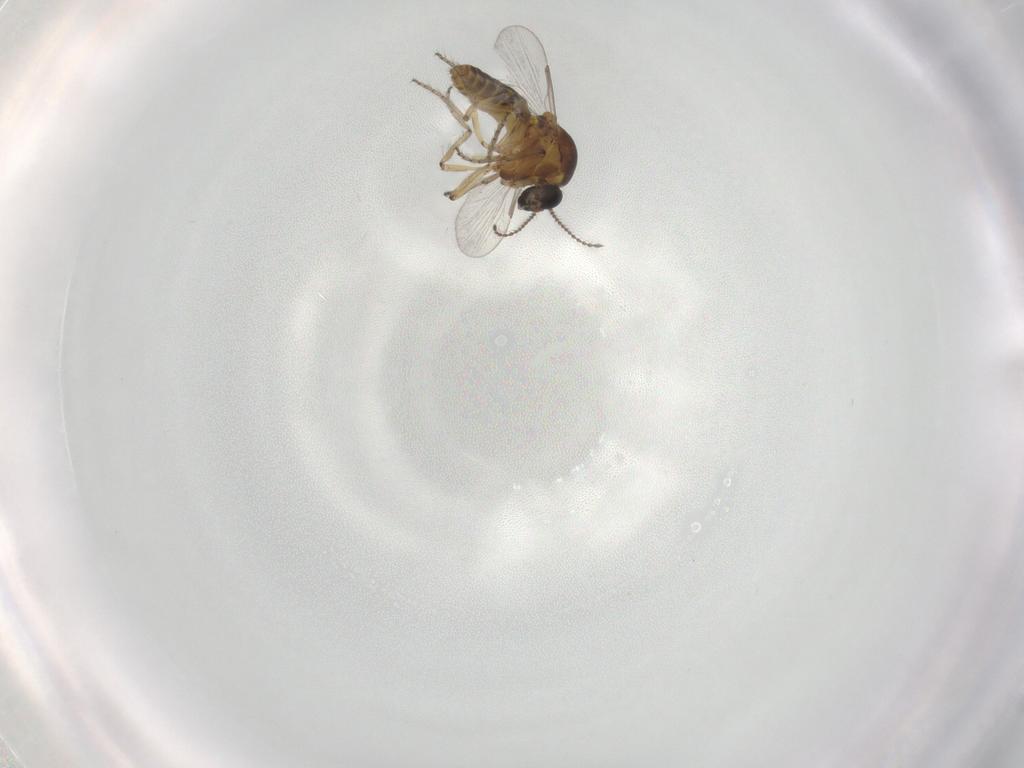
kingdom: Animalia
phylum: Arthropoda
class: Insecta
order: Diptera
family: Ceratopogonidae
